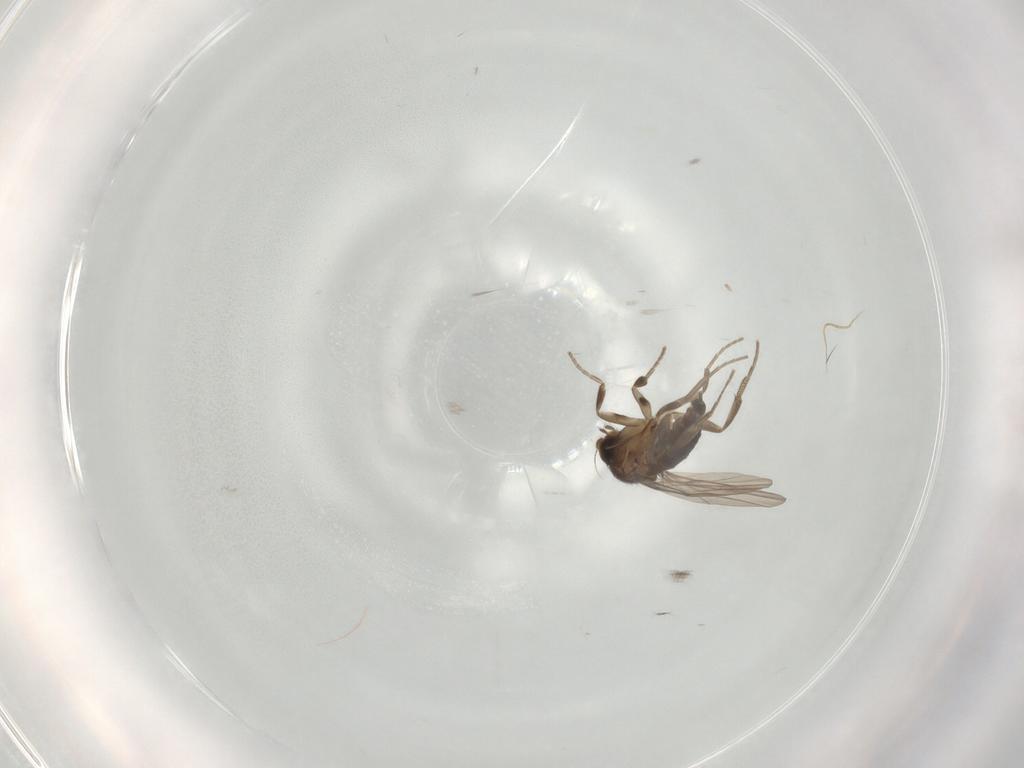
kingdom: Animalia
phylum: Arthropoda
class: Insecta
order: Diptera
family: Phoridae
